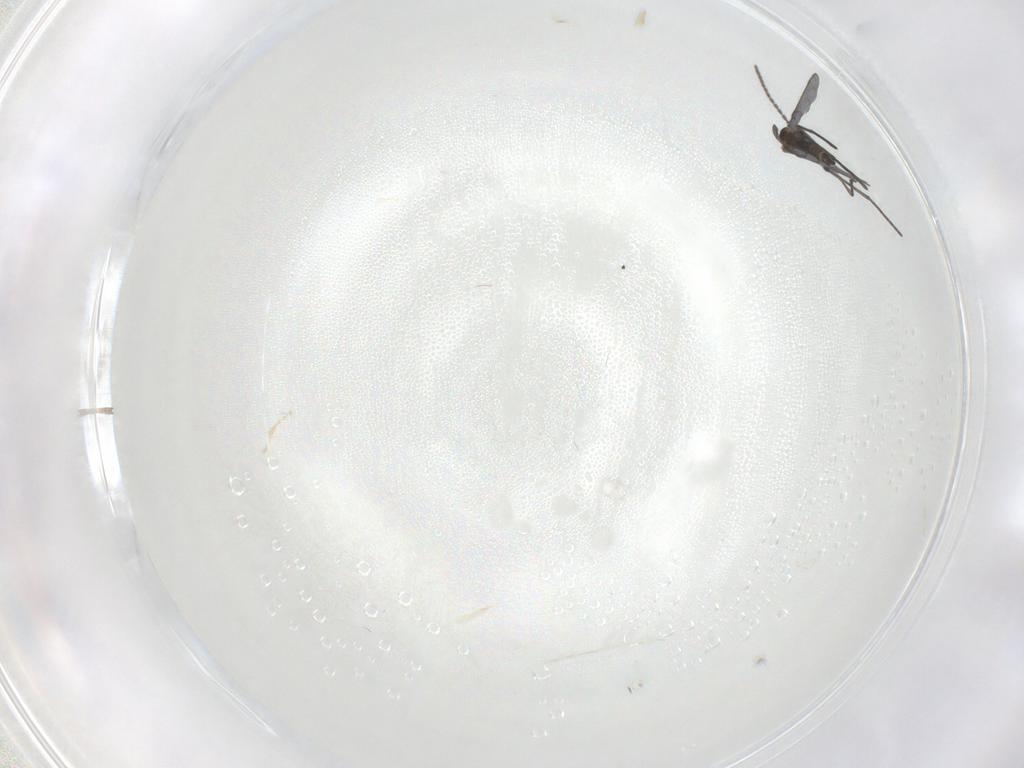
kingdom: Animalia
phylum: Arthropoda
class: Insecta
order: Diptera
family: Sciaridae
